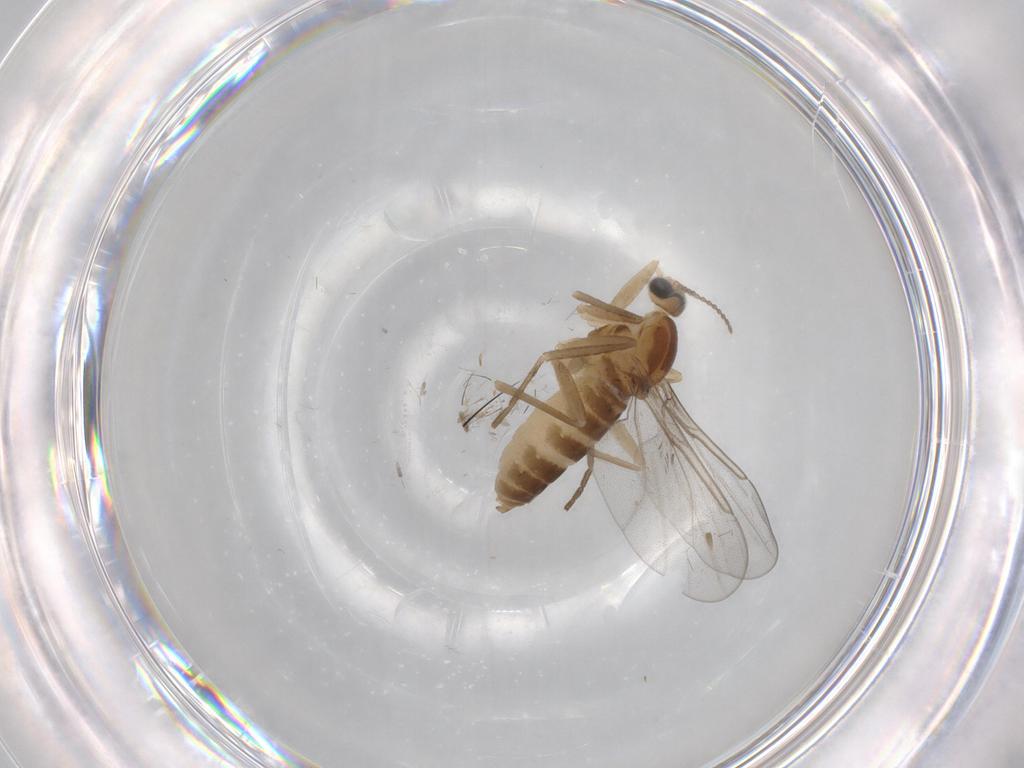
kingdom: Animalia
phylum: Arthropoda
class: Insecta
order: Diptera
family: Cecidomyiidae
